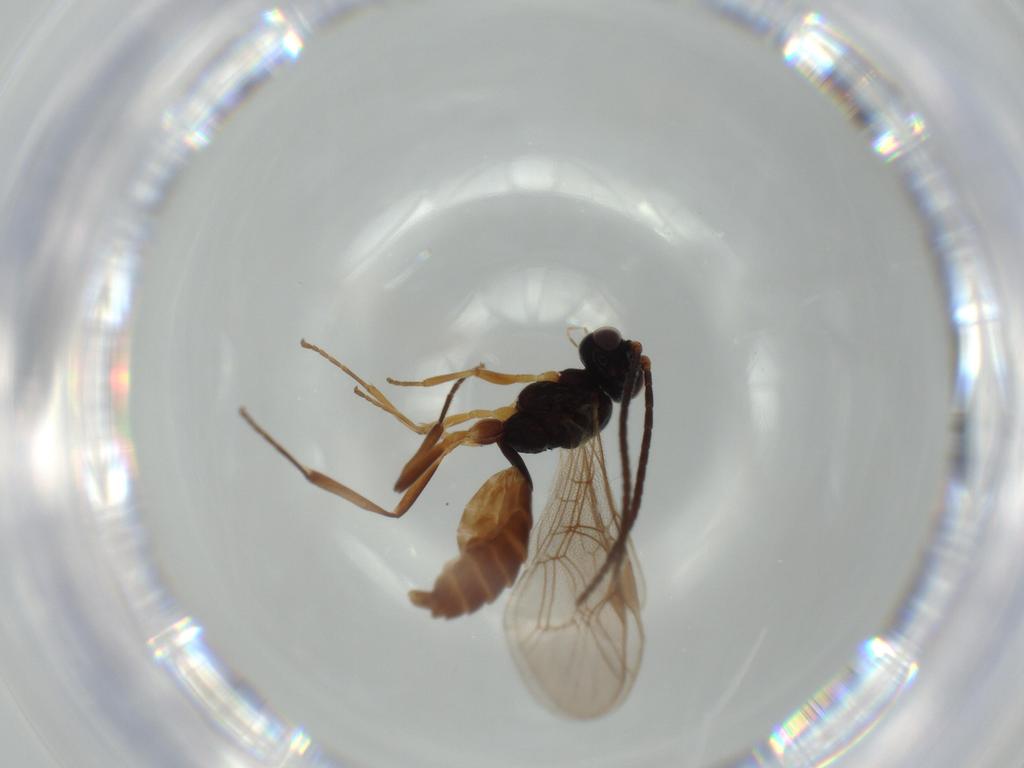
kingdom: Animalia
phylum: Arthropoda
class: Insecta
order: Hymenoptera
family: Ichneumonidae
